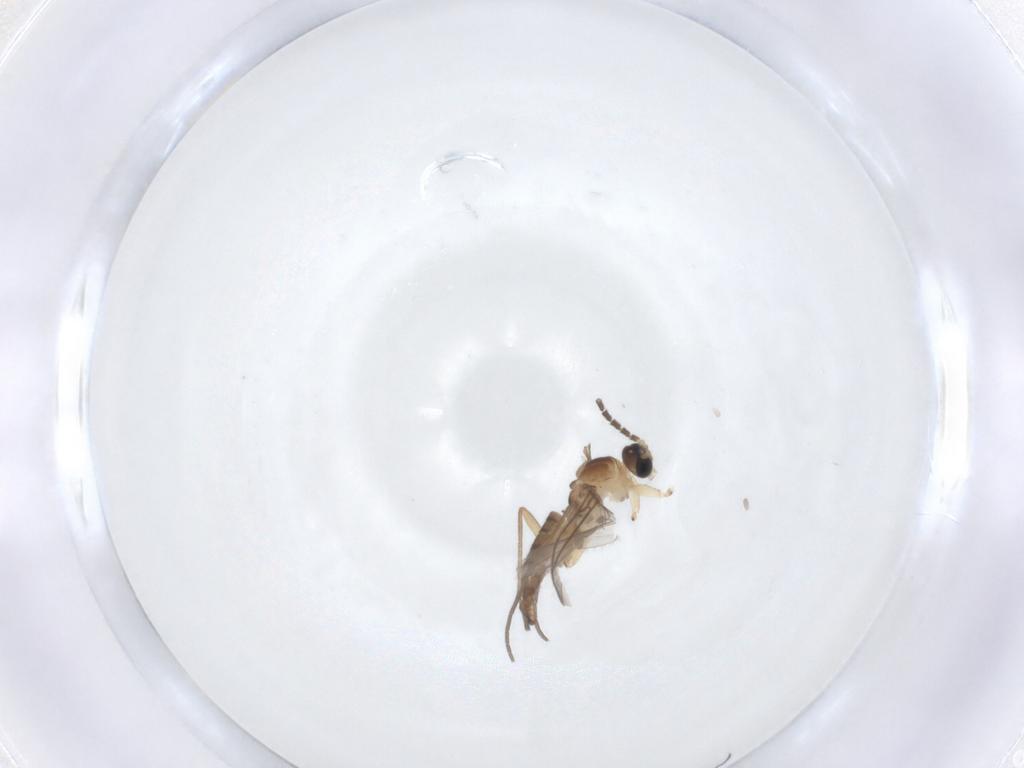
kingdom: Animalia
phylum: Arthropoda
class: Insecta
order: Diptera
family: Sciaridae
